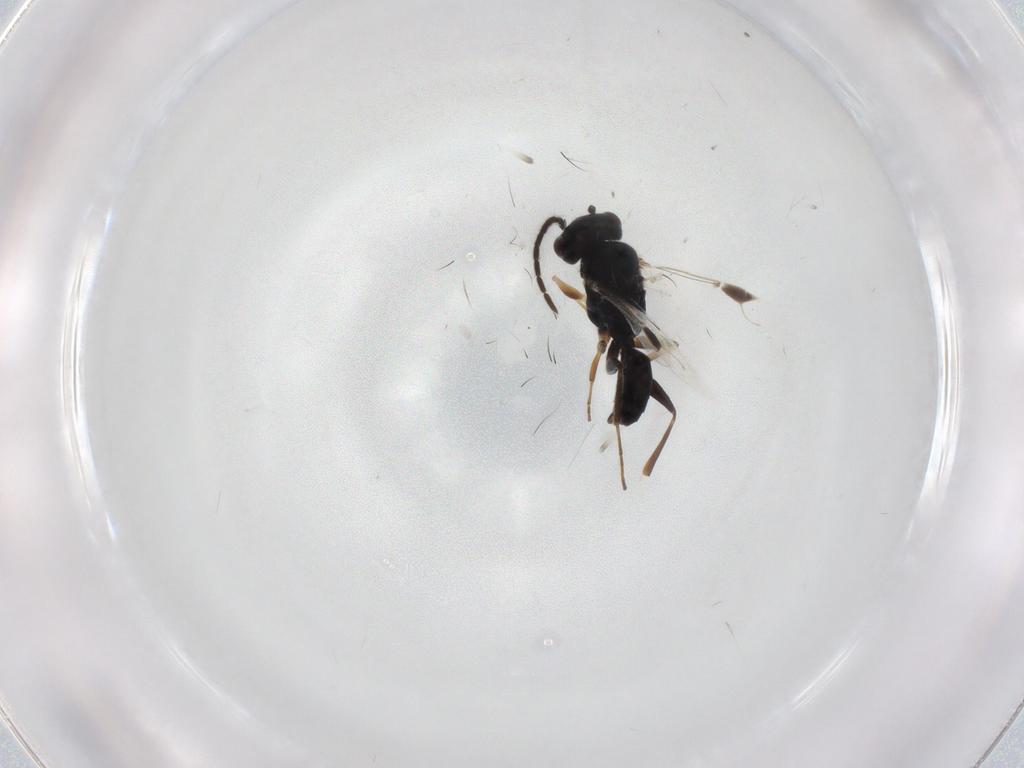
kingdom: Animalia
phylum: Arthropoda
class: Insecta
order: Hymenoptera
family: Dryinidae
